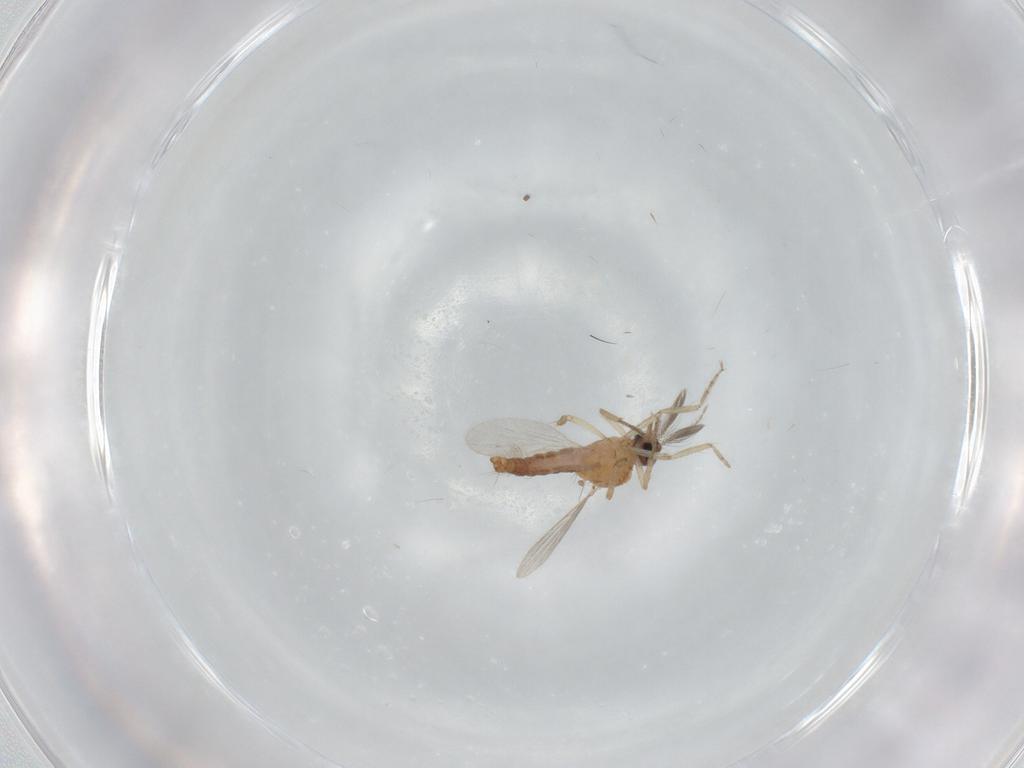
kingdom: Animalia
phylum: Arthropoda
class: Insecta
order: Diptera
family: Ceratopogonidae
